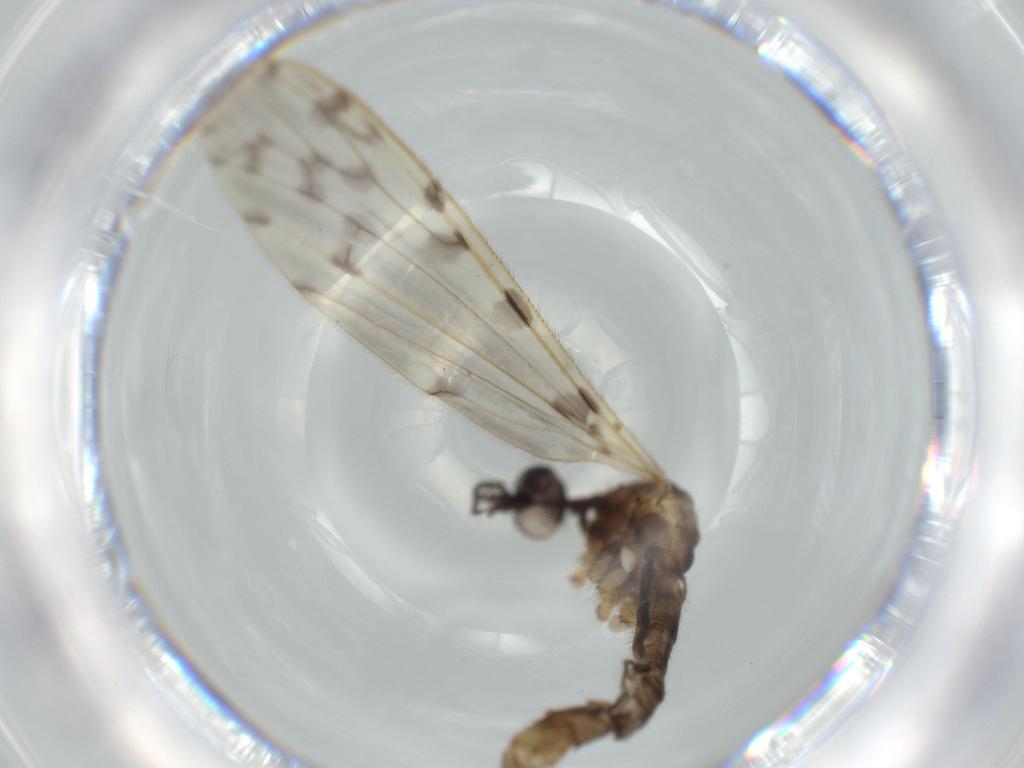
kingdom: Animalia
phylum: Arthropoda
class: Insecta
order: Diptera
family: Limoniidae
